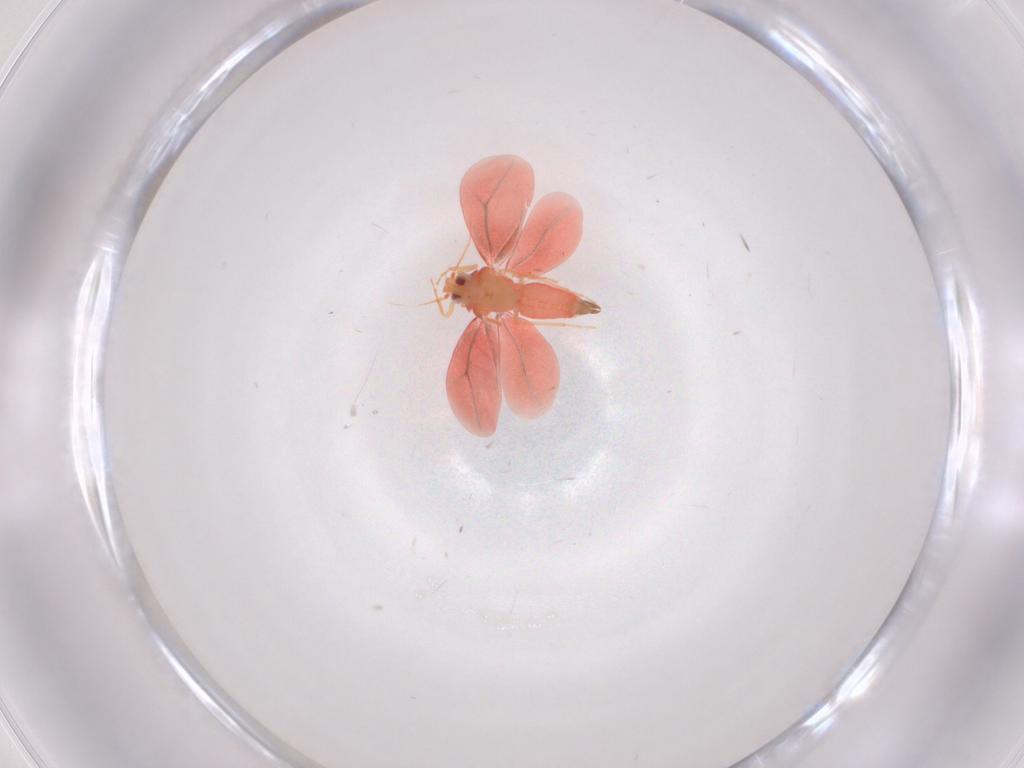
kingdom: Animalia
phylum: Arthropoda
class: Insecta
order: Hemiptera
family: Aleyrodidae
